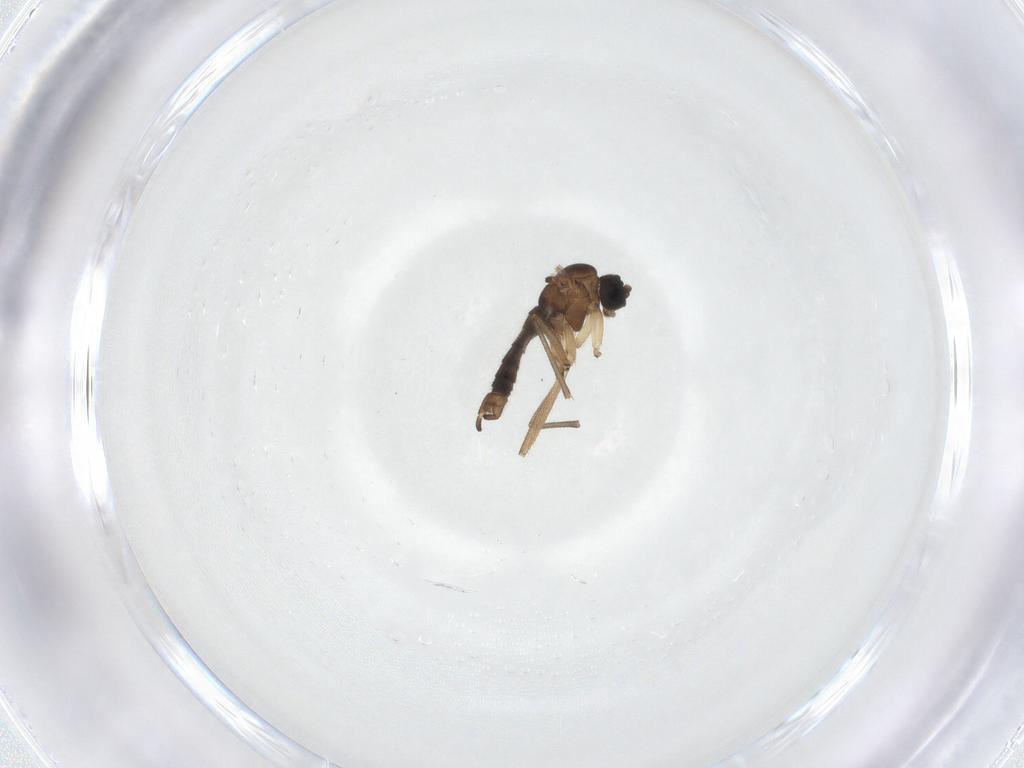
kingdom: Animalia
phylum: Arthropoda
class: Insecta
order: Diptera
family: Sciaridae
